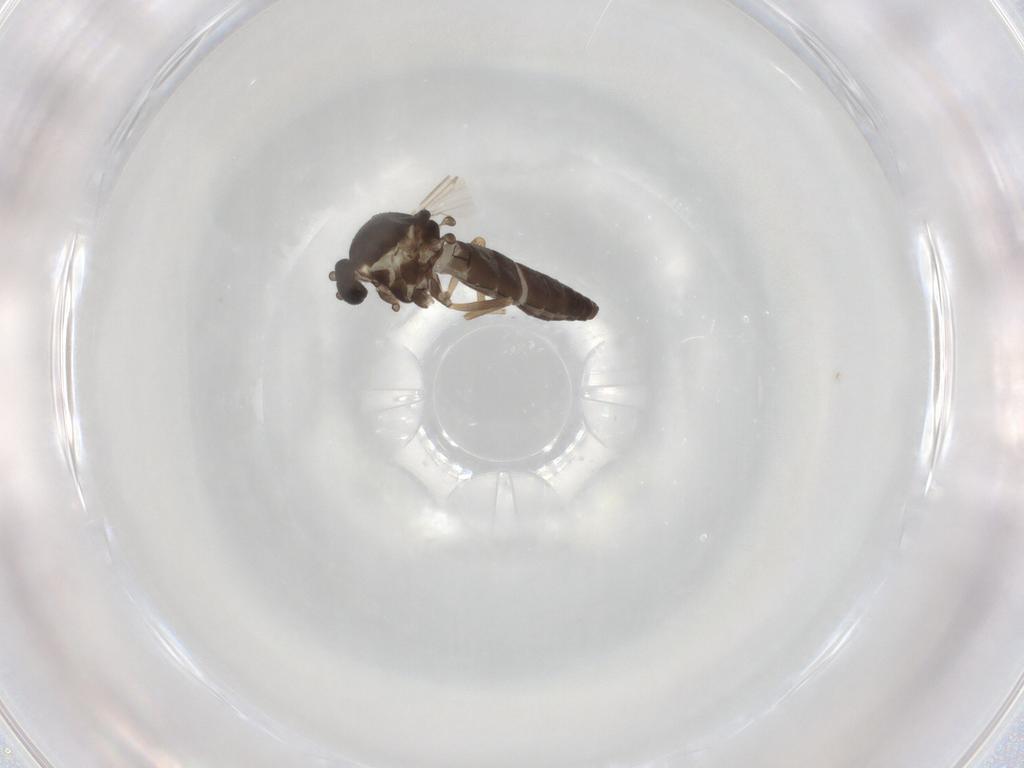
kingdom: Animalia
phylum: Arthropoda
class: Insecta
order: Diptera
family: Ceratopogonidae
